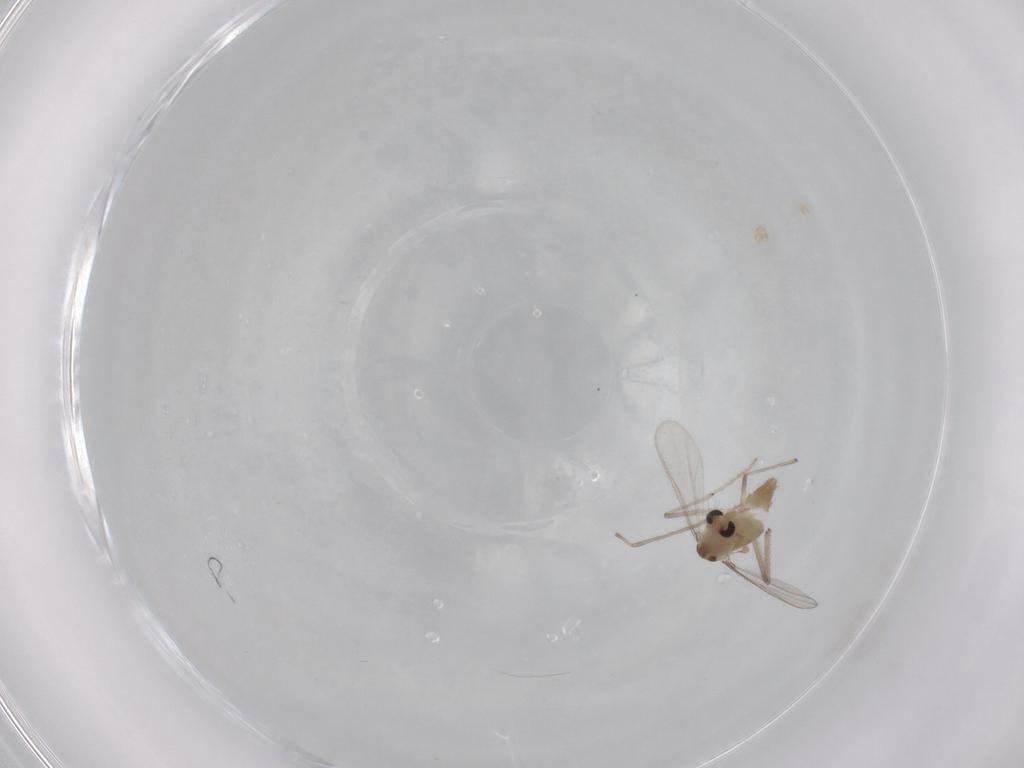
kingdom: Animalia
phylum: Arthropoda
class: Insecta
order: Diptera
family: Chironomidae
